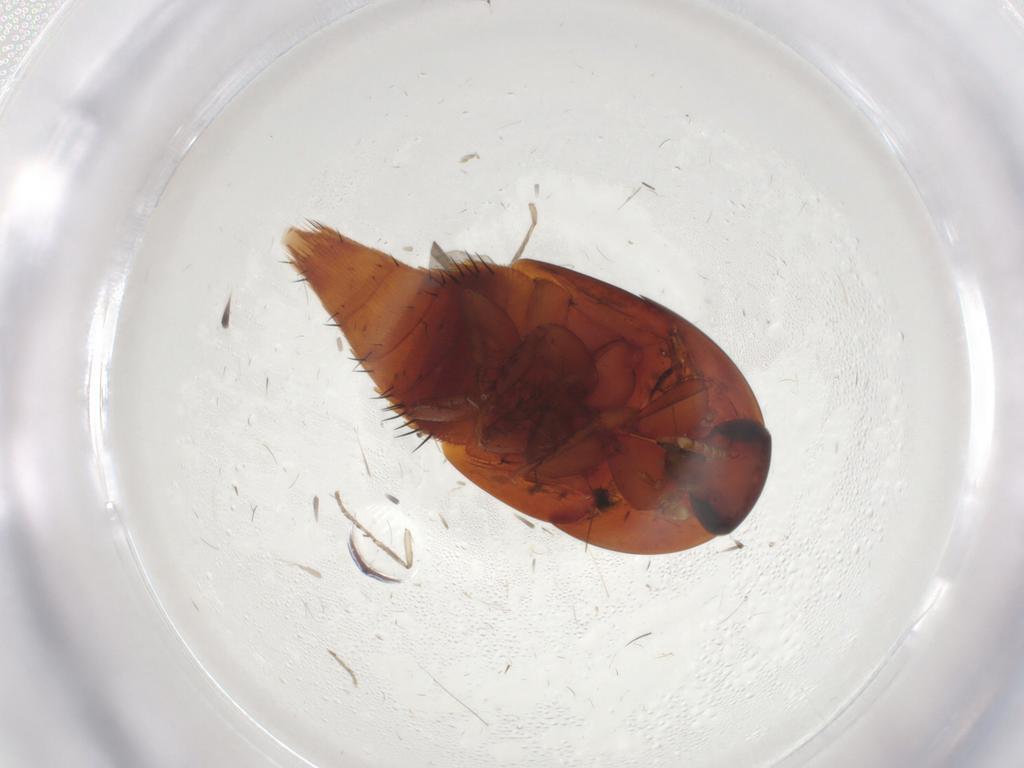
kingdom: Animalia
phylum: Arthropoda
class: Insecta
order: Coleoptera
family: Staphylinidae
